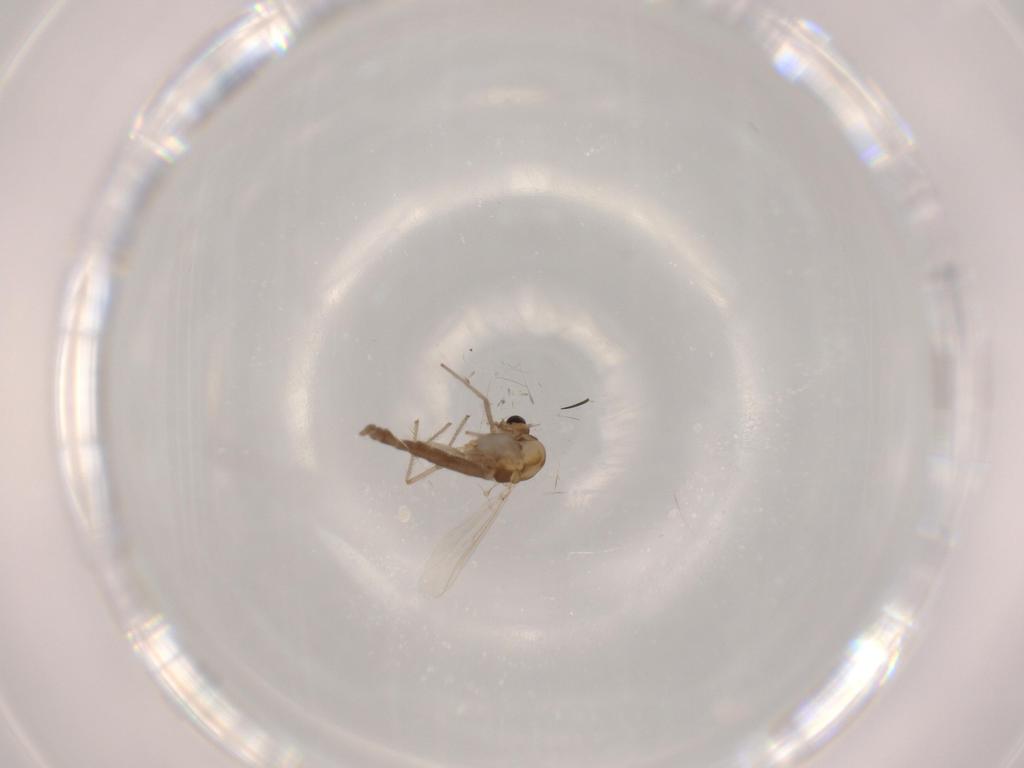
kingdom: Animalia
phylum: Arthropoda
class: Insecta
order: Diptera
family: Chironomidae
